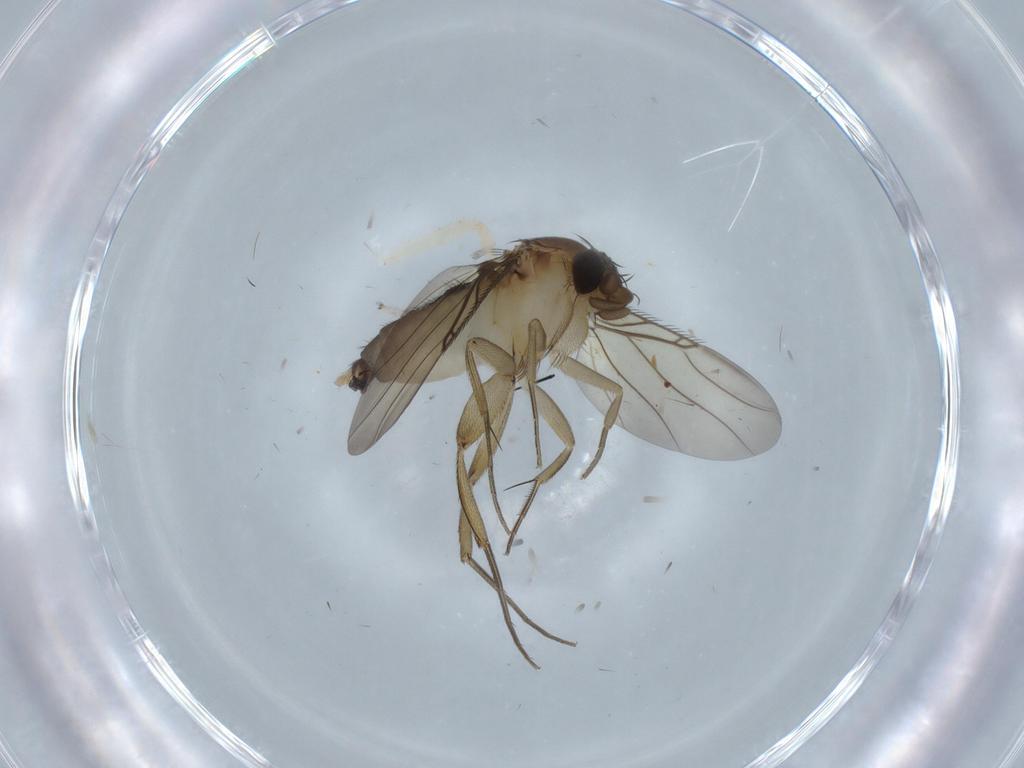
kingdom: Animalia
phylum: Arthropoda
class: Insecta
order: Diptera
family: Phoridae
